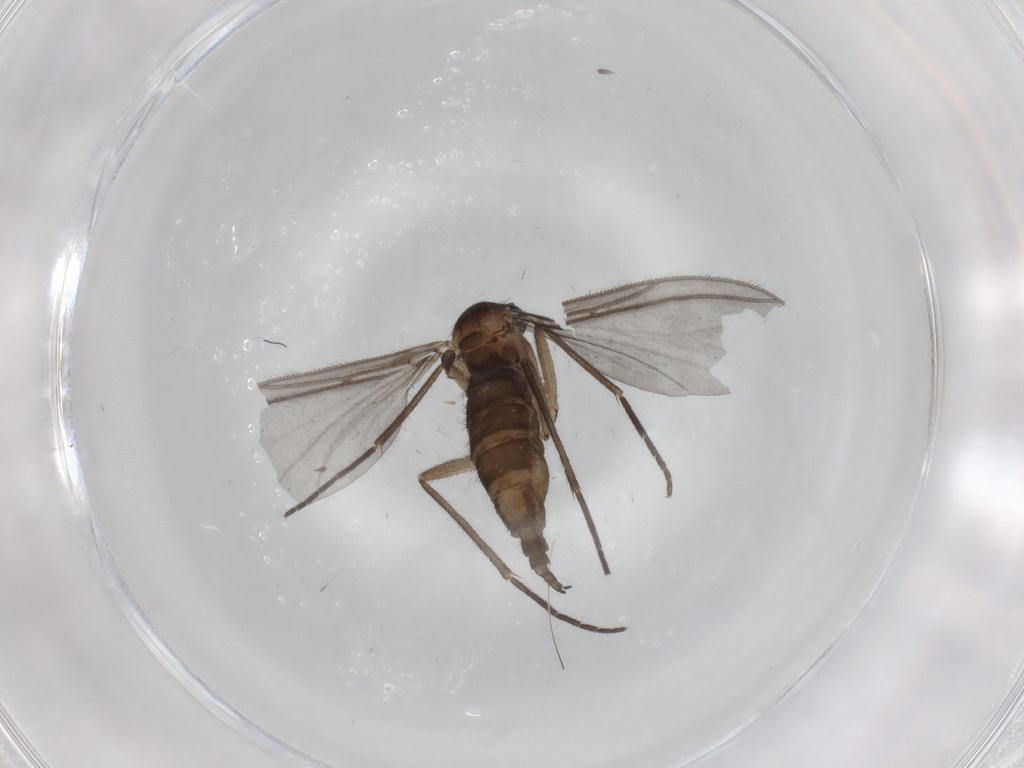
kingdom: Animalia
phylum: Arthropoda
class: Insecta
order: Diptera
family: Sciaridae
